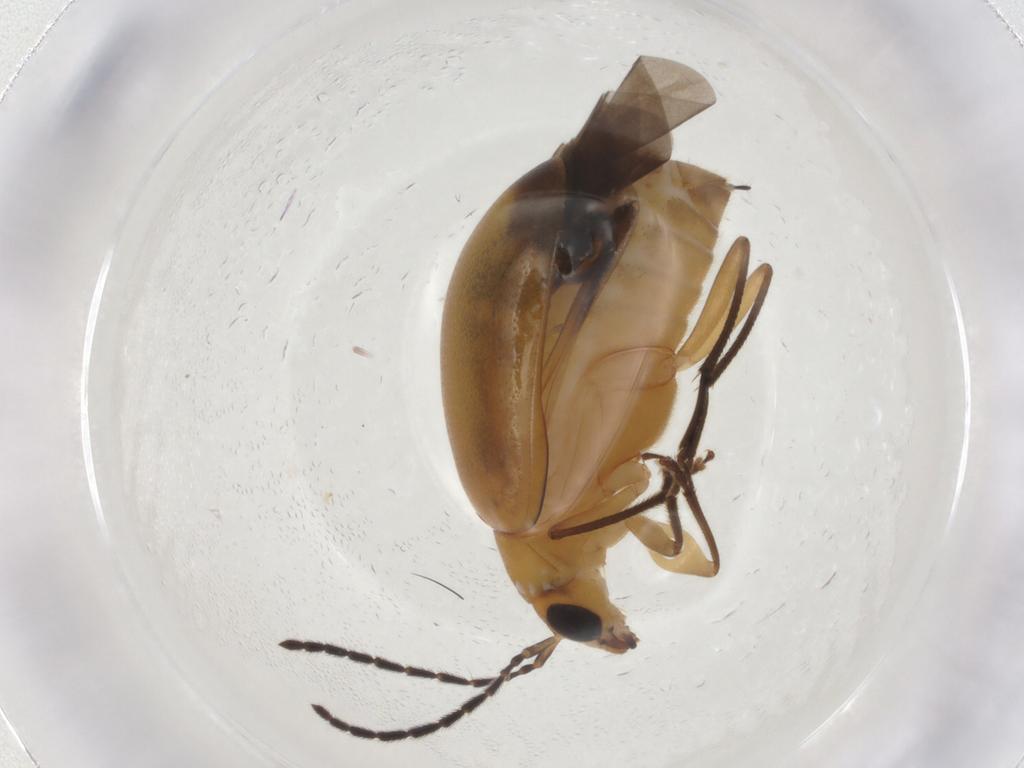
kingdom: Animalia
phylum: Arthropoda
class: Insecta
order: Coleoptera
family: Chrysomelidae
